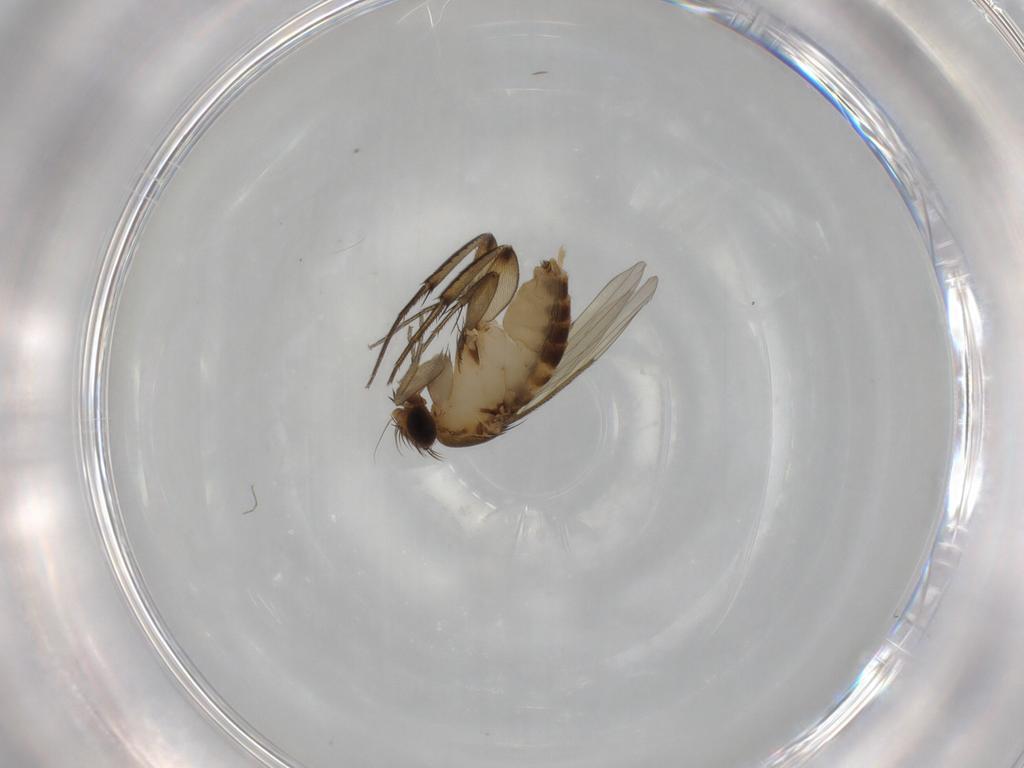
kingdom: Animalia
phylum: Arthropoda
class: Insecta
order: Diptera
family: Phoridae
